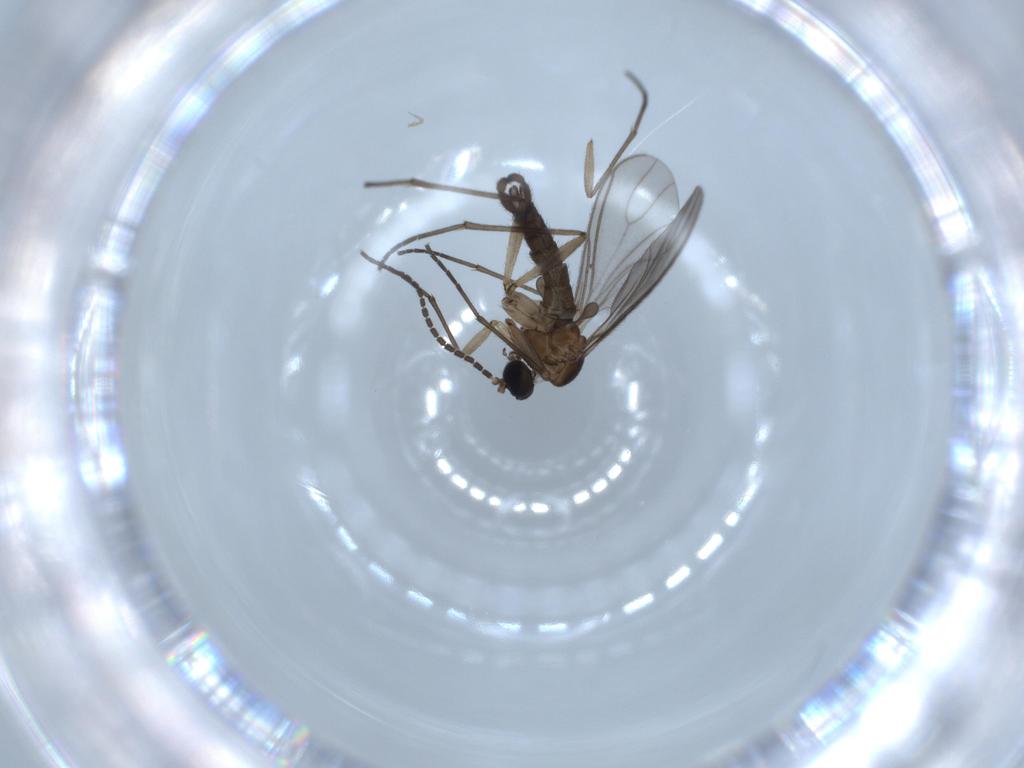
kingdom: Animalia
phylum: Arthropoda
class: Insecta
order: Diptera
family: Sciaridae
